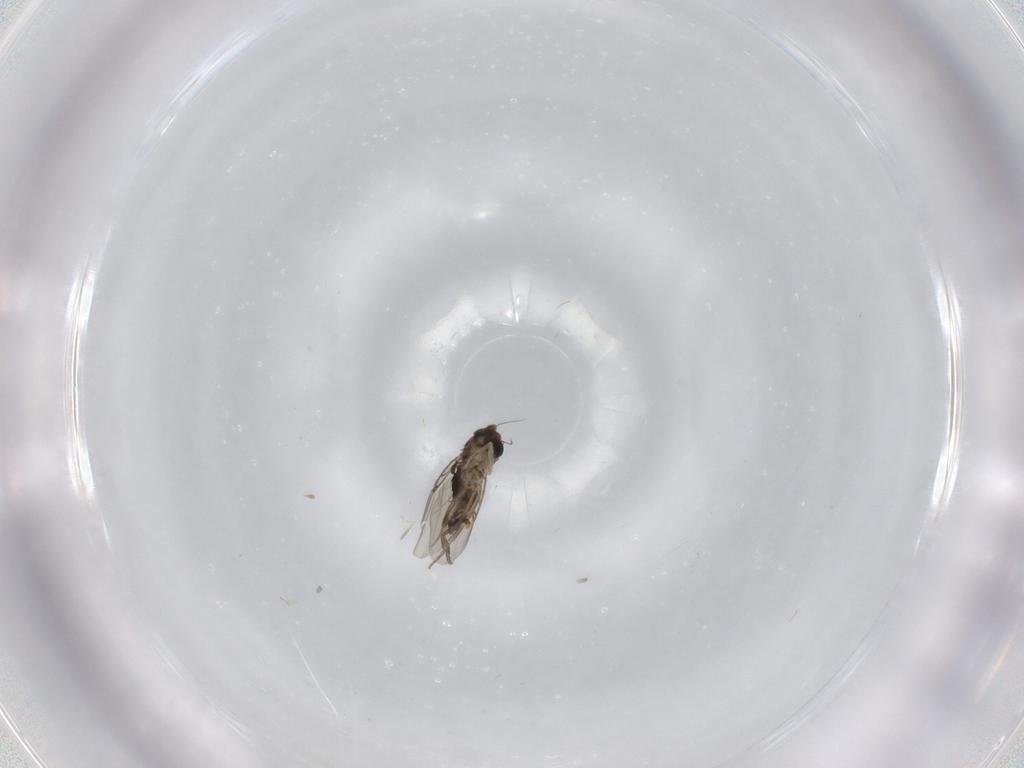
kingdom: Animalia
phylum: Arthropoda
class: Insecta
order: Diptera
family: Phoridae
